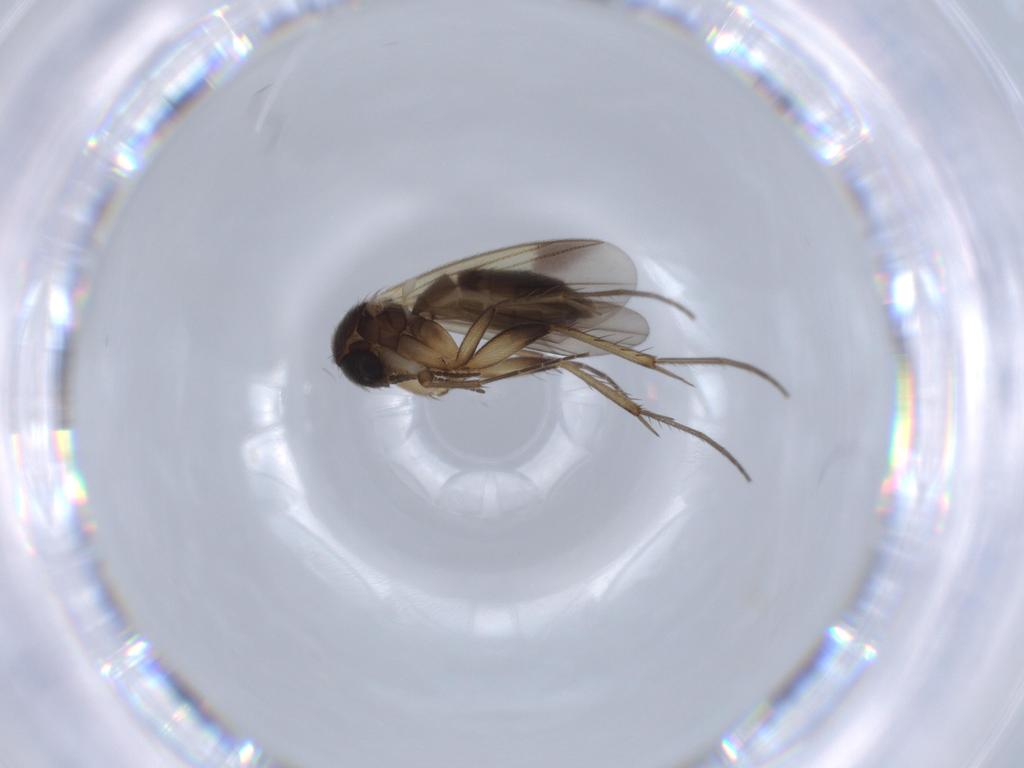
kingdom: Animalia
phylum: Arthropoda
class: Insecta
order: Diptera
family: Mycetophilidae
